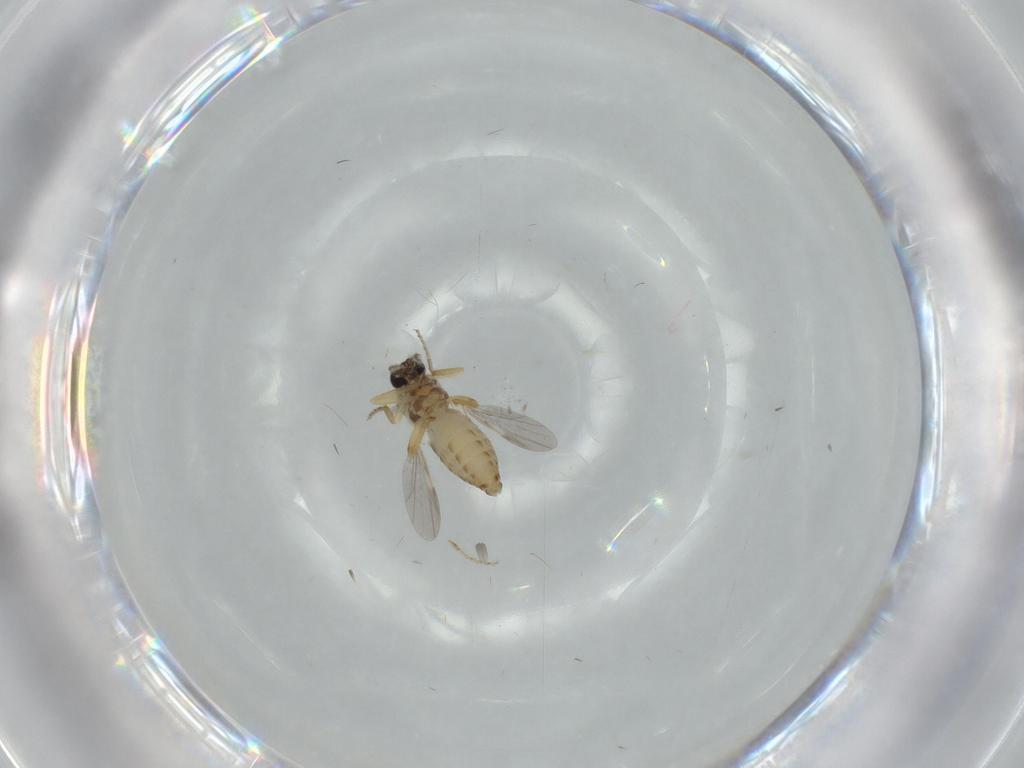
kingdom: Animalia
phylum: Arthropoda
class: Insecta
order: Diptera
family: Ceratopogonidae
